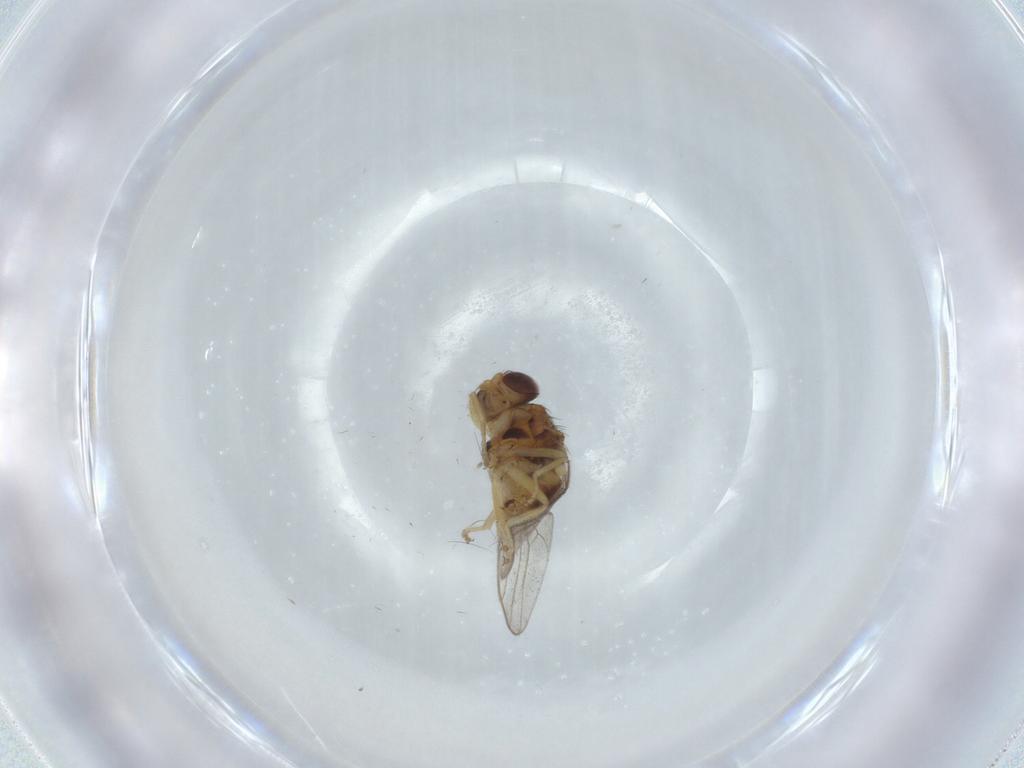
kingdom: Animalia
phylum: Arthropoda
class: Insecta
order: Diptera
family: Chloropidae
